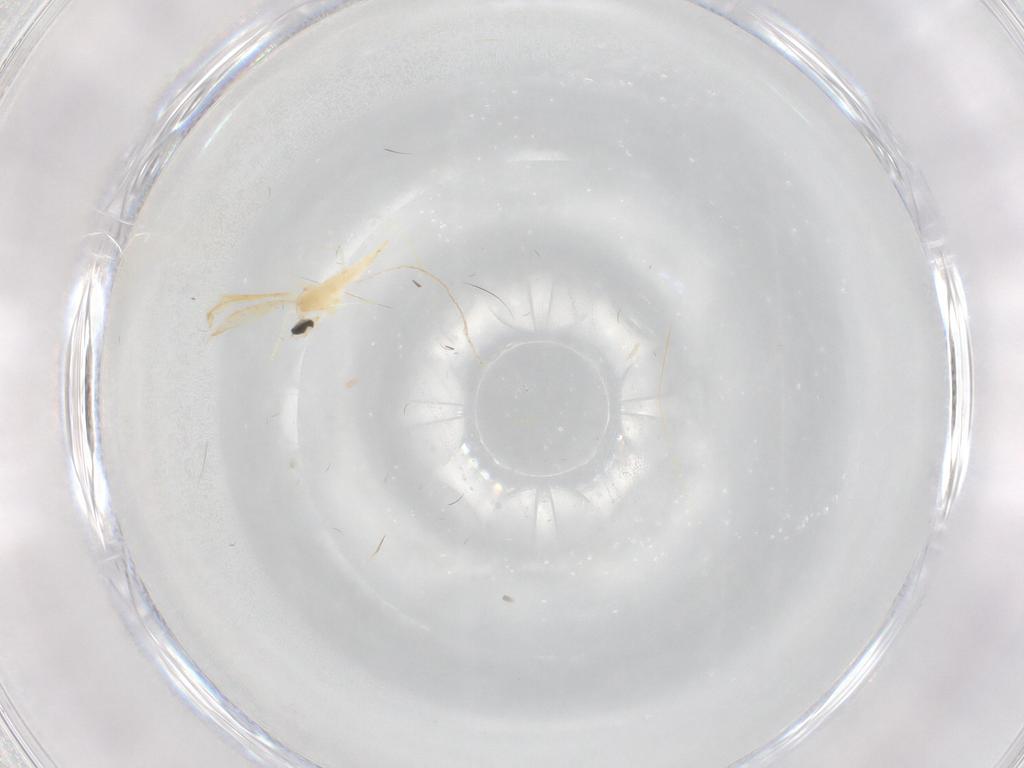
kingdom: Animalia
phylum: Arthropoda
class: Insecta
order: Diptera
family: Cecidomyiidae
